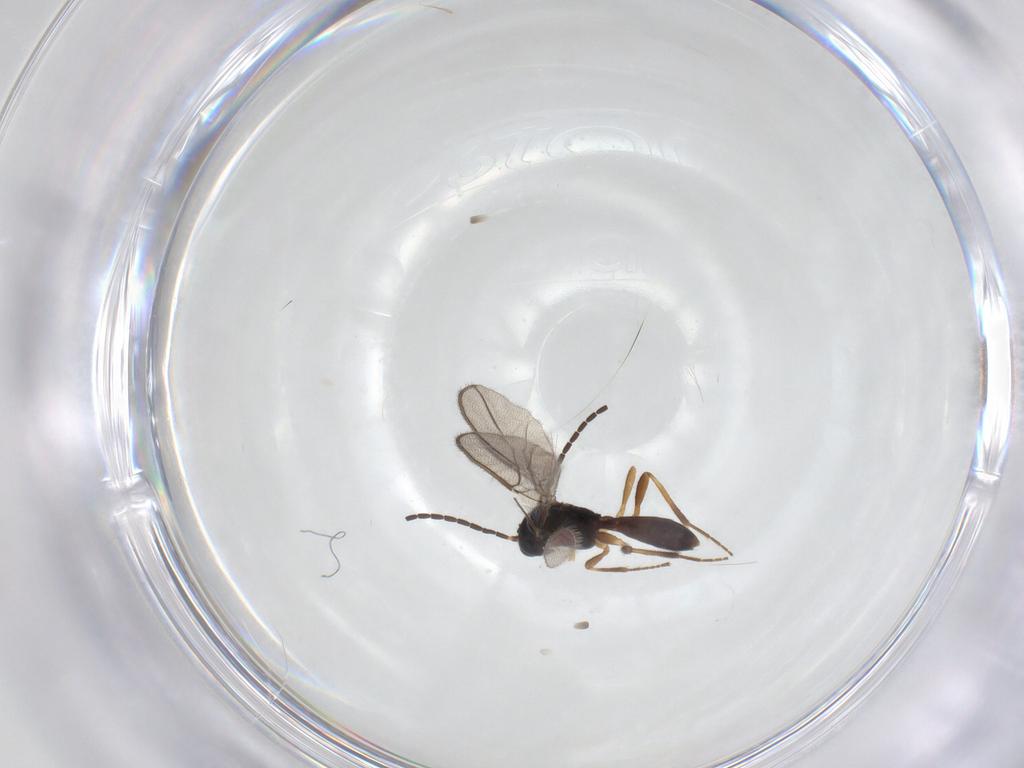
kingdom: Animalia
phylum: Arthropoda
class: Insecta
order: Hymenoptera
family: Braconidae
